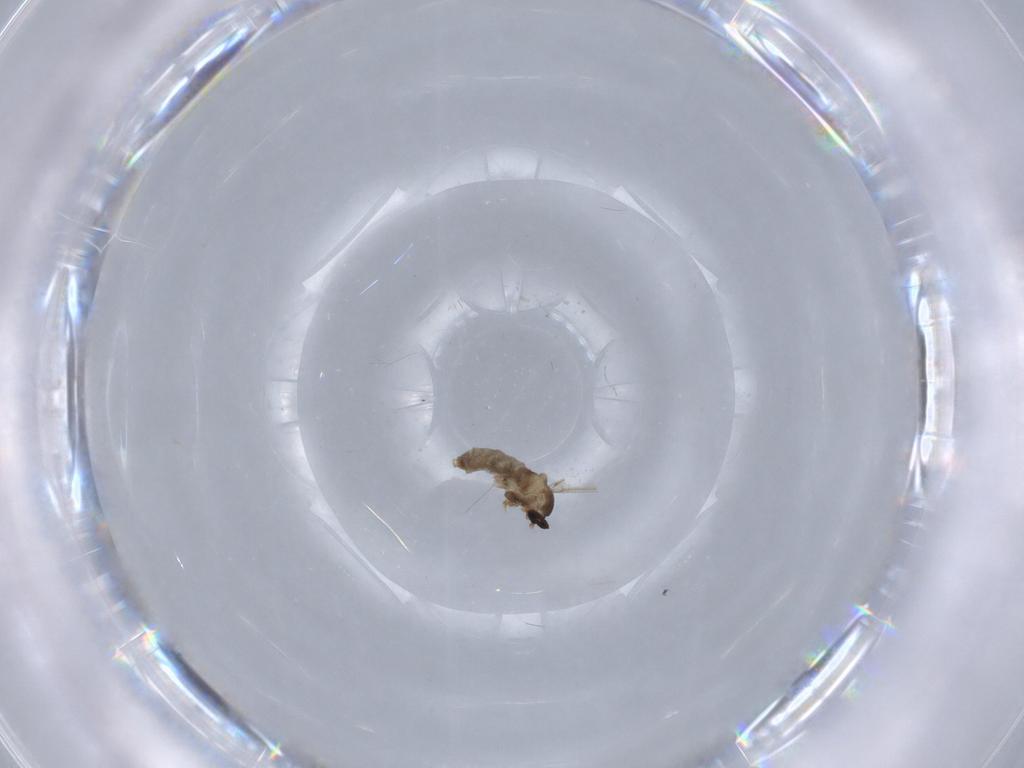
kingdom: Animalia
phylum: Arthropoda
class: Insecta
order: Diptera
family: Cecidomyiidae
